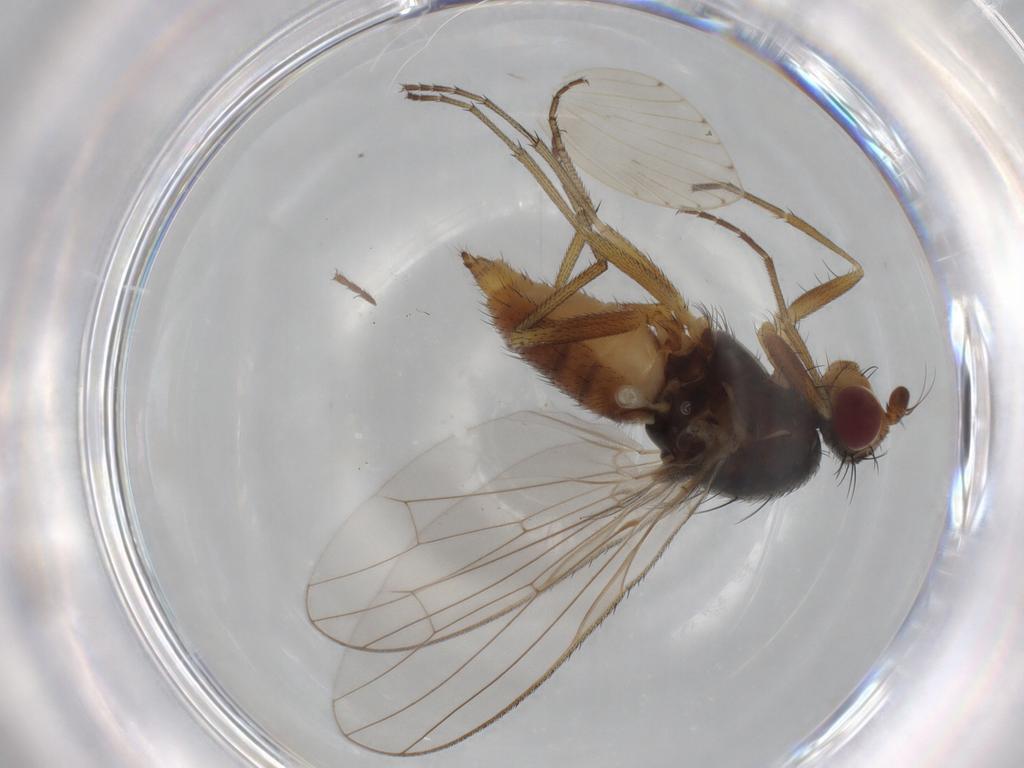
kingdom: Animalia
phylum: Arthropoda
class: Insecta
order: Diptera
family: Heleomyzidae
